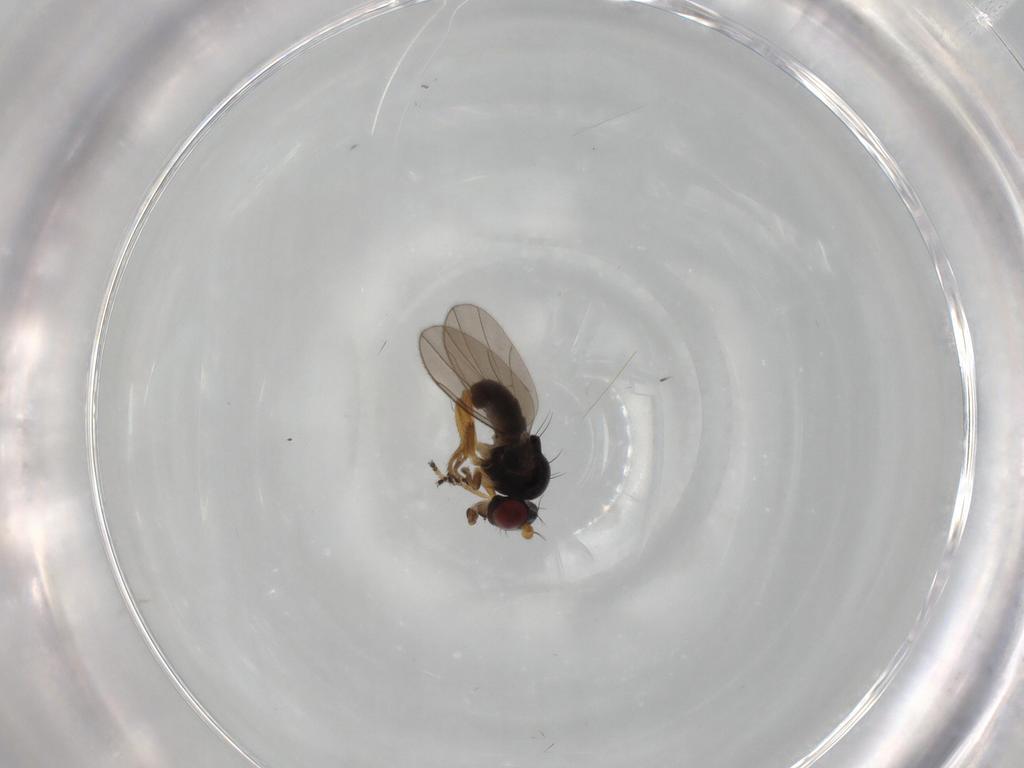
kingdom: Animalia
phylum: Arthropoda
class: Insecta
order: Diptera
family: Ephydridae
